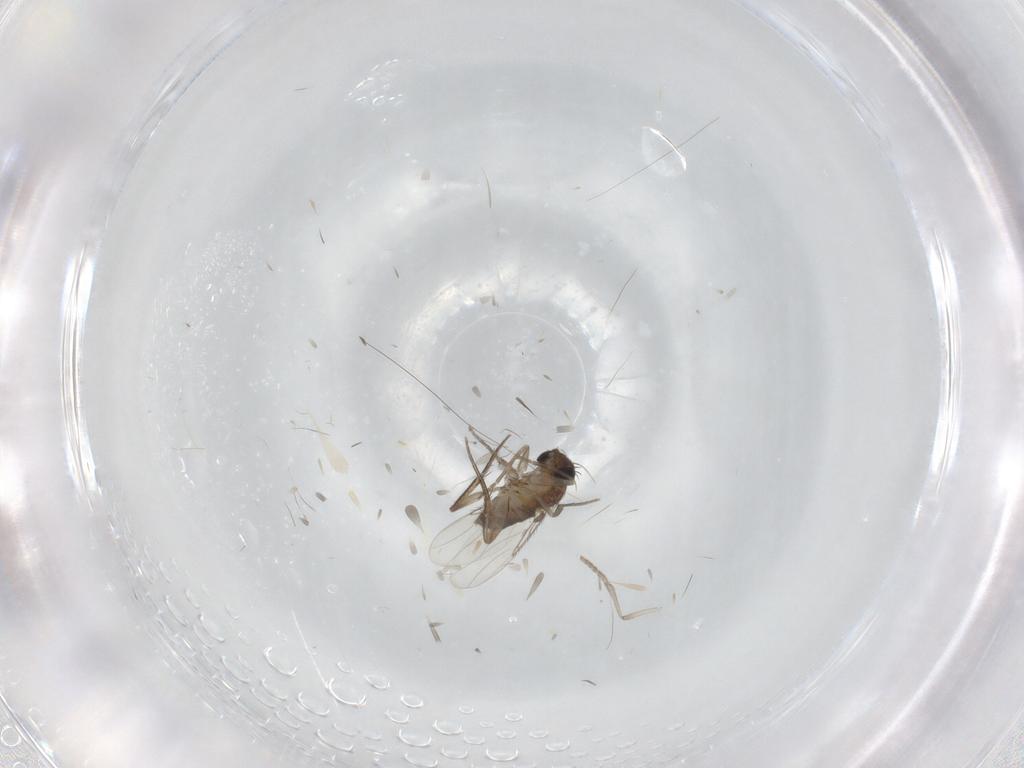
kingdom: Animalia
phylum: Arthropoda
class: Insecta
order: Diptera
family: Phoridae
